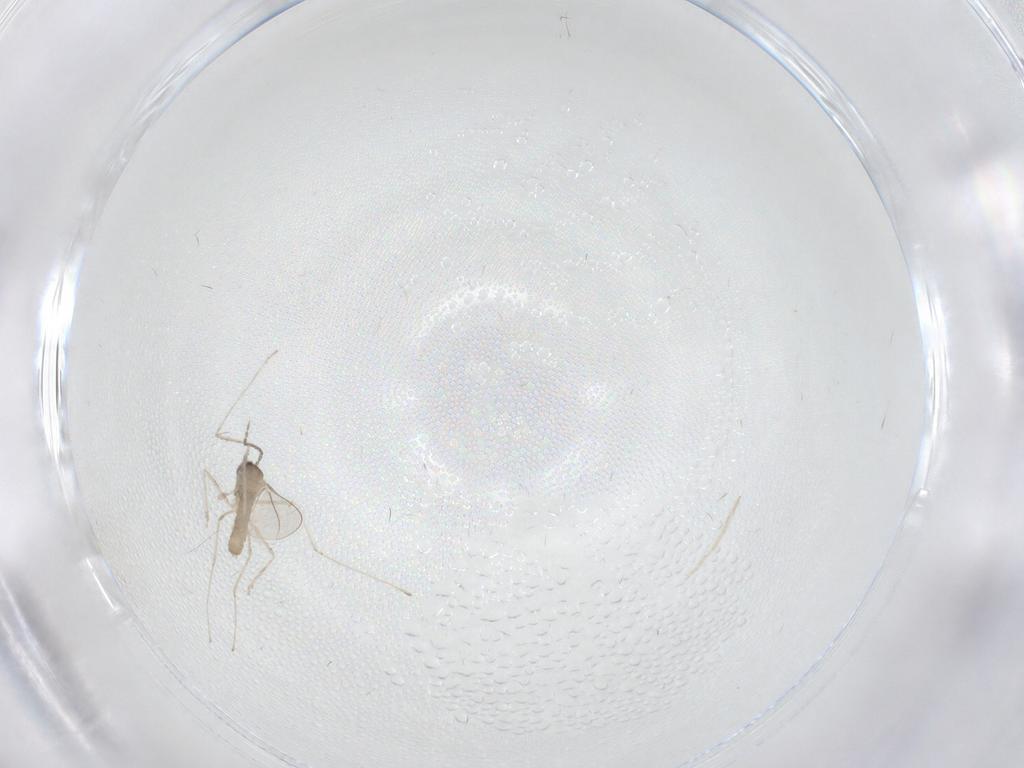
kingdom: Animalia
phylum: Arthropoda
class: Insecta
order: Diptera
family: Cecidomyiidae
